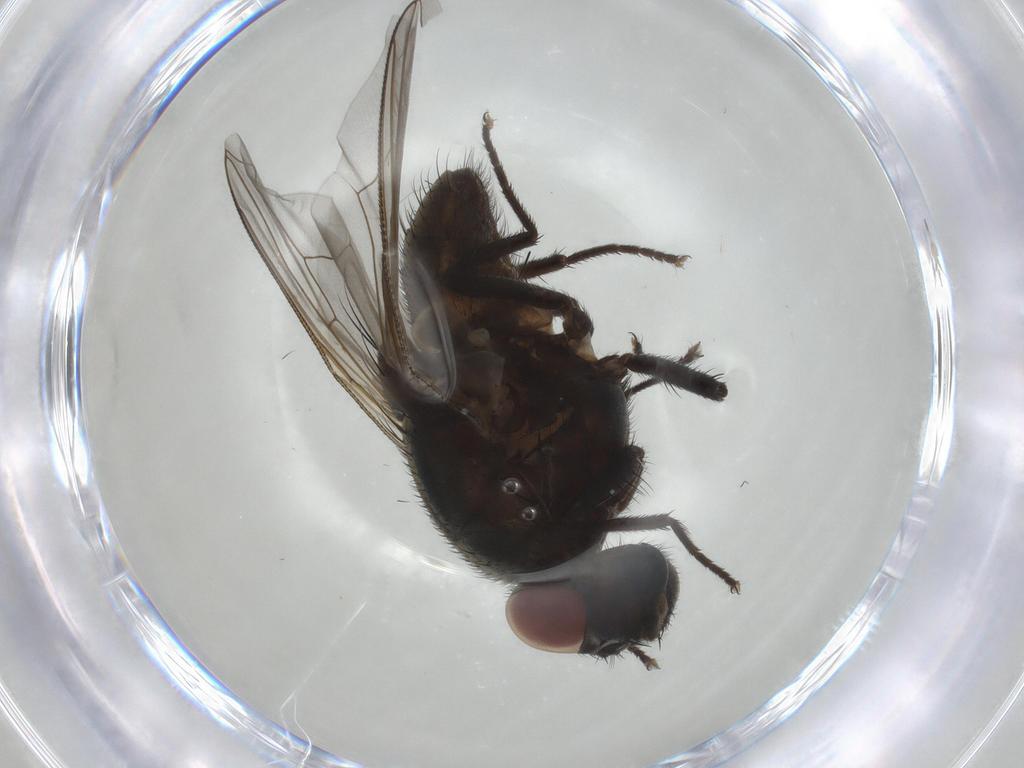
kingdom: Animalia
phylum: Arthropoda
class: Insecta
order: Diptera
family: Muscidae
